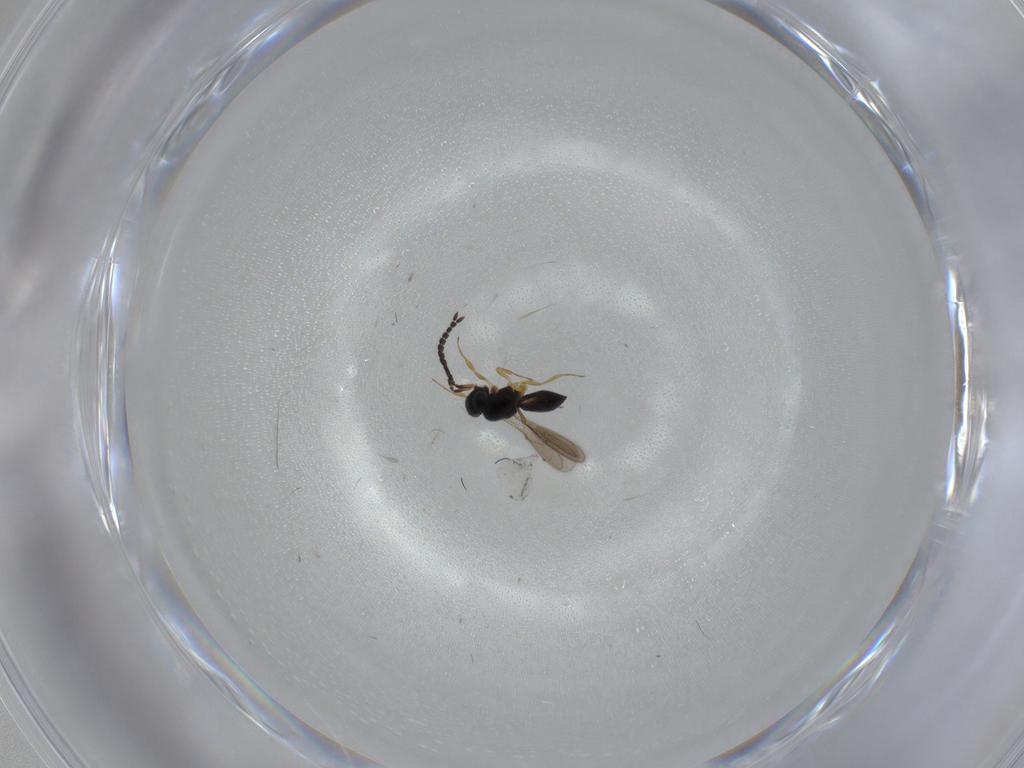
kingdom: Animalia
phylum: Arthropoda
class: Insecta
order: Hymenoptera
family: Scelionidae
